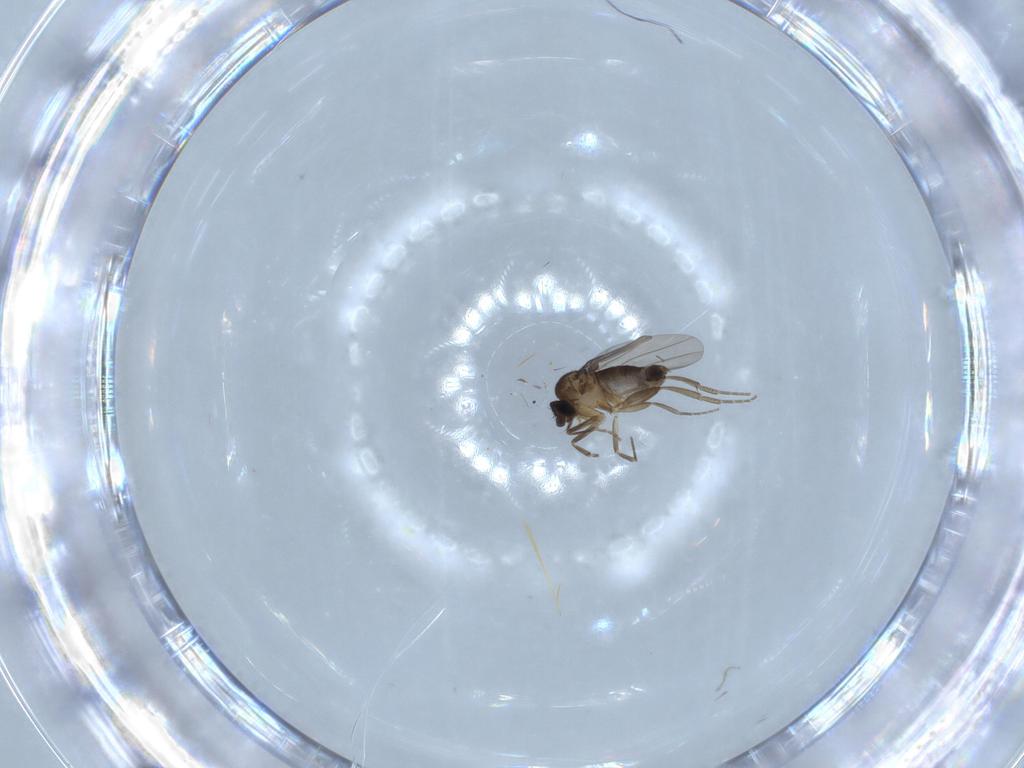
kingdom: Animalia
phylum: Arthropoda
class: Insecta
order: Diptera
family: Phoridae
